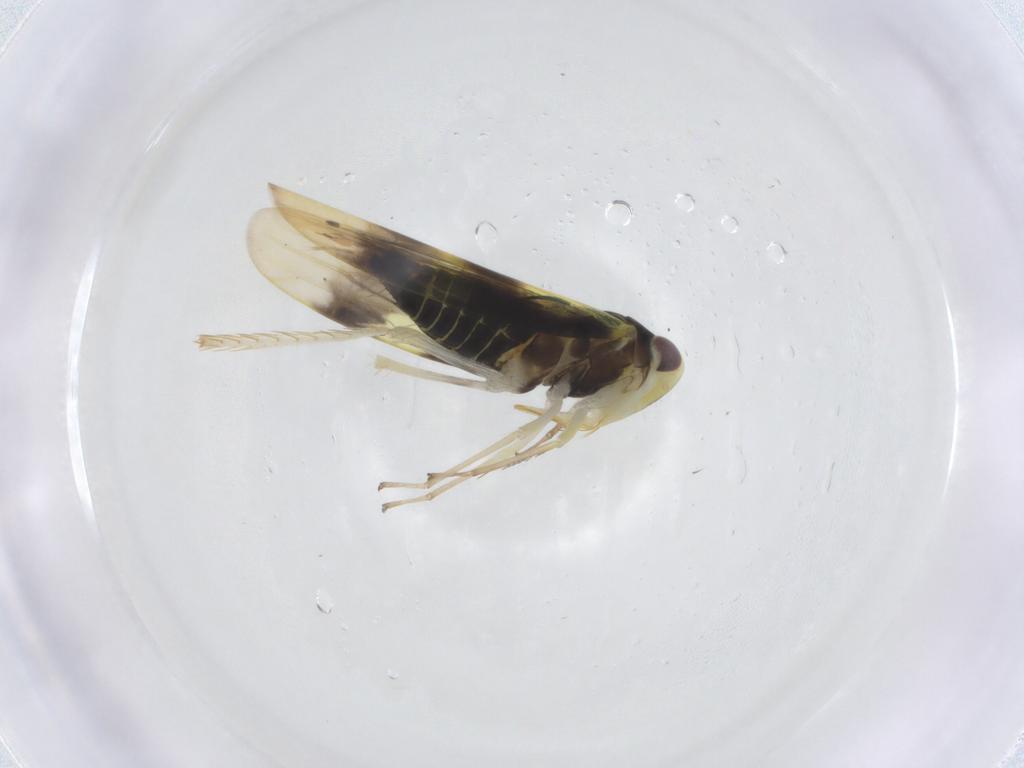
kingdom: Animalia
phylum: Arthropoda
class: Insecta
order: Hemiptera
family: Cicadellidae
